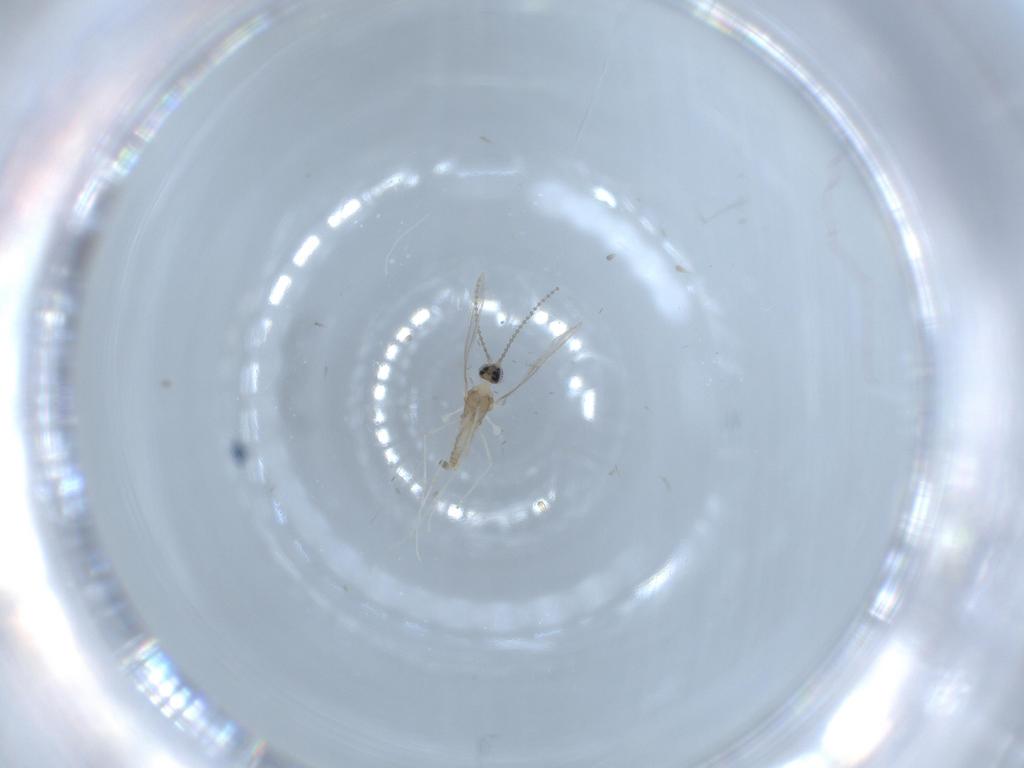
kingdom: Animalia
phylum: Arthropoda
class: Insecta
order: Diptera
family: Cecidomyiidae
